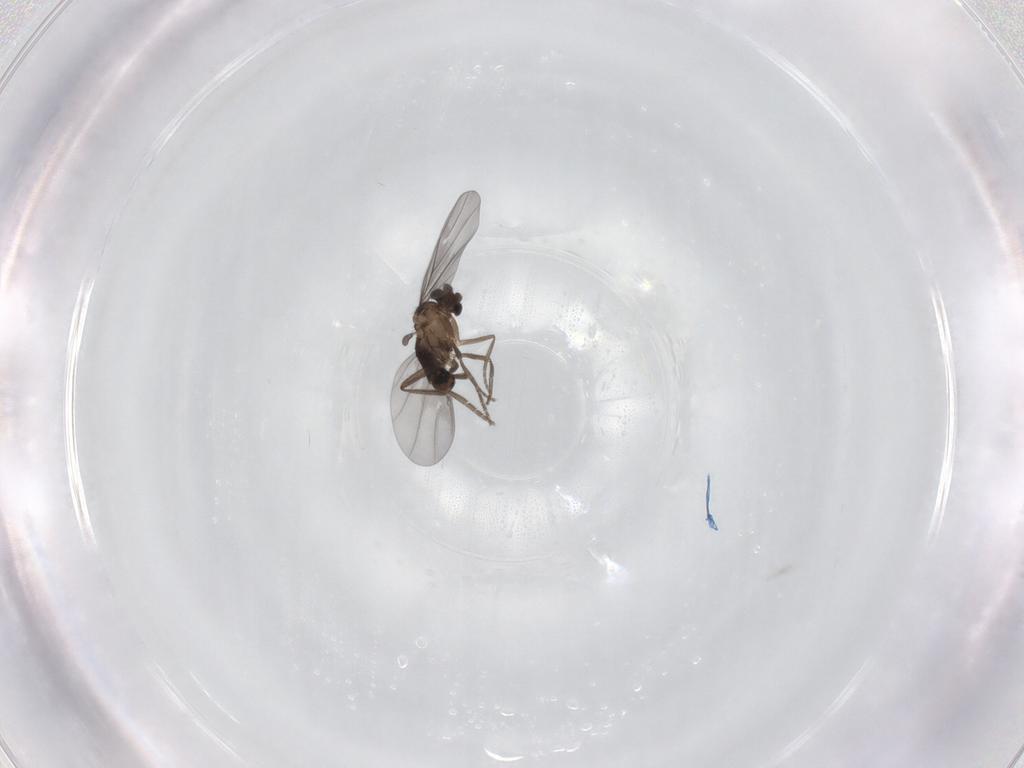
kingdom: Animalia
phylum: Arthropoda
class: Insecta
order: Diptera
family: Phoridae
